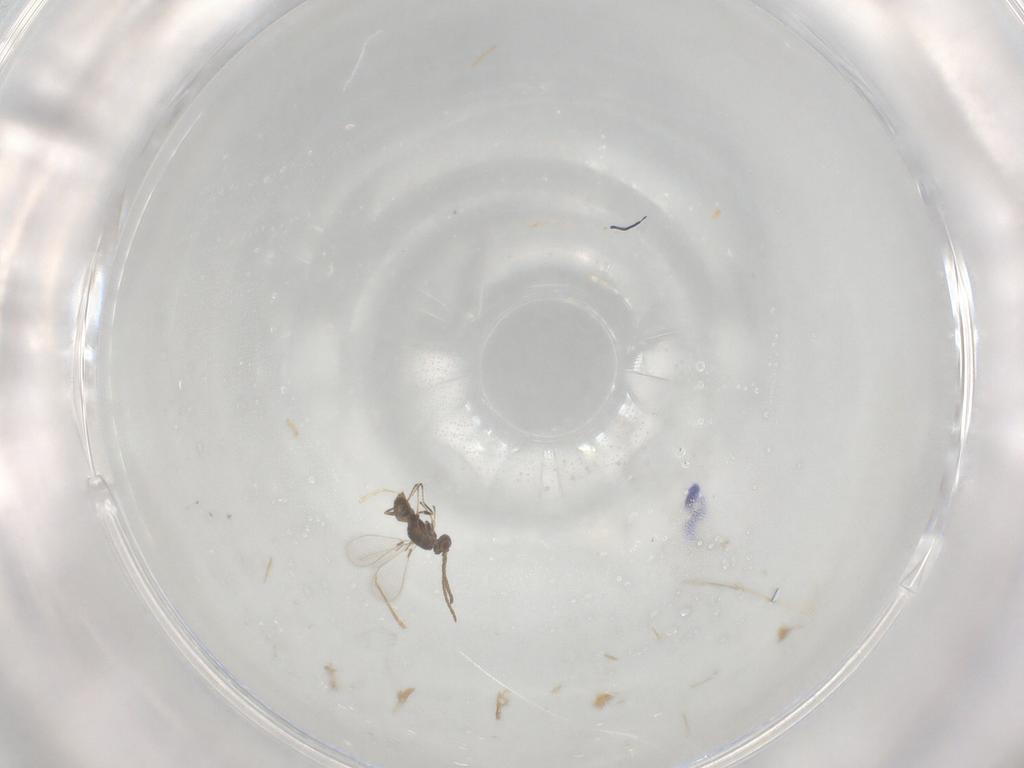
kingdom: Animalia
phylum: Arthropoda
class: Insecta
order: Hymenoptera
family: Mymaridae
